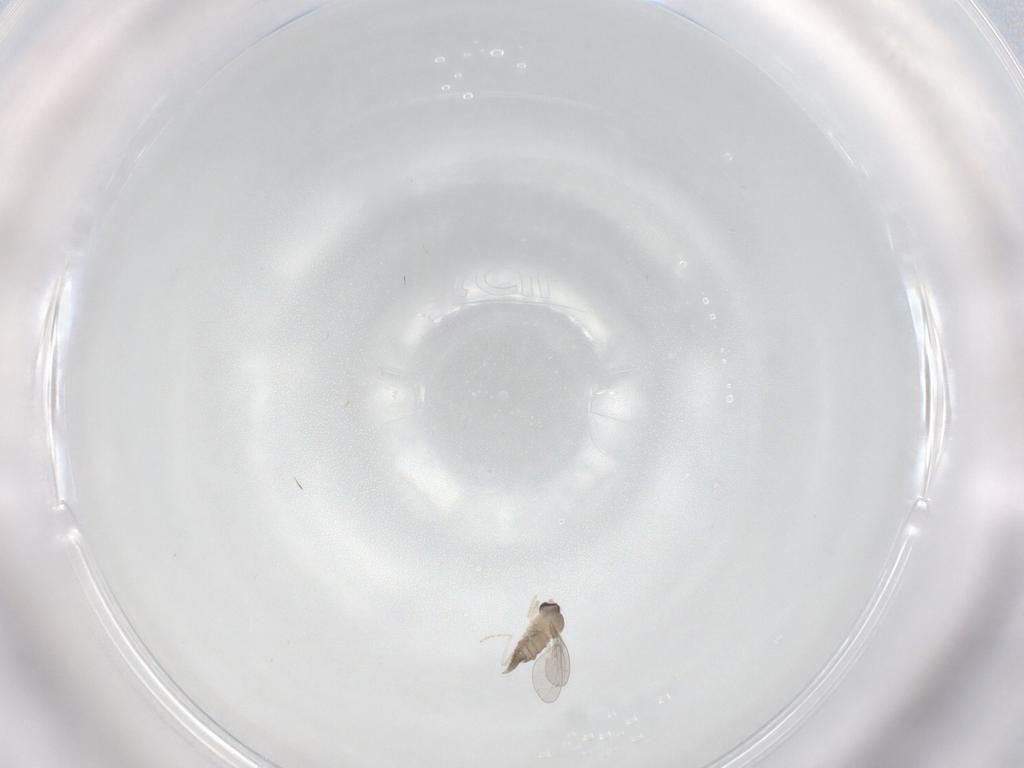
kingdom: Animalia
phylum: Arthropoda
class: Insecta
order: Diptera
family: Cecidomyiidae
